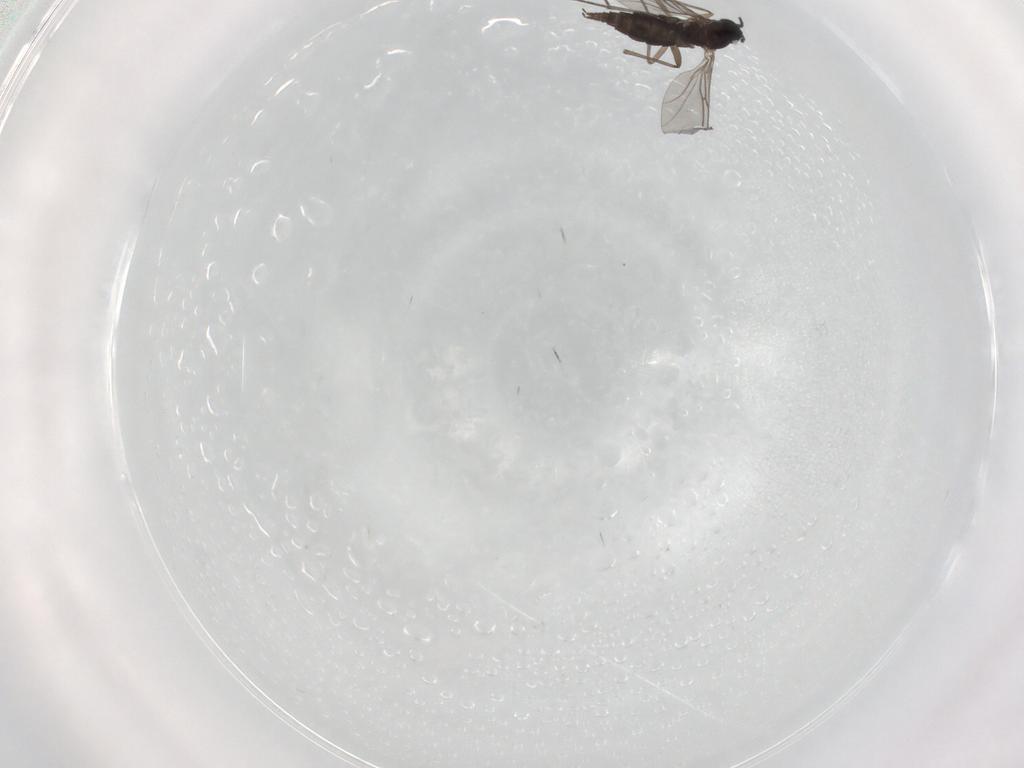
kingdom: Animalia
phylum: Arthropoda
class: Insecta
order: Diptera
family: Sciaridae
